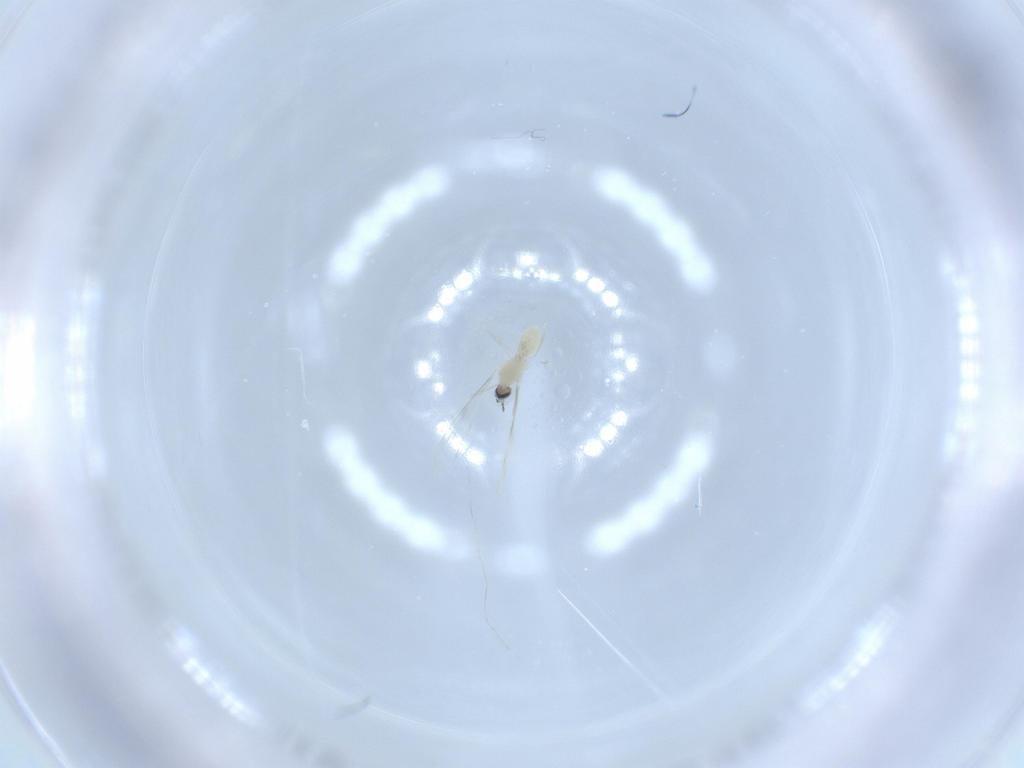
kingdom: Animalia
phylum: Arthropoda
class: Insecta
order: Diptera
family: Cecidomyiidae
